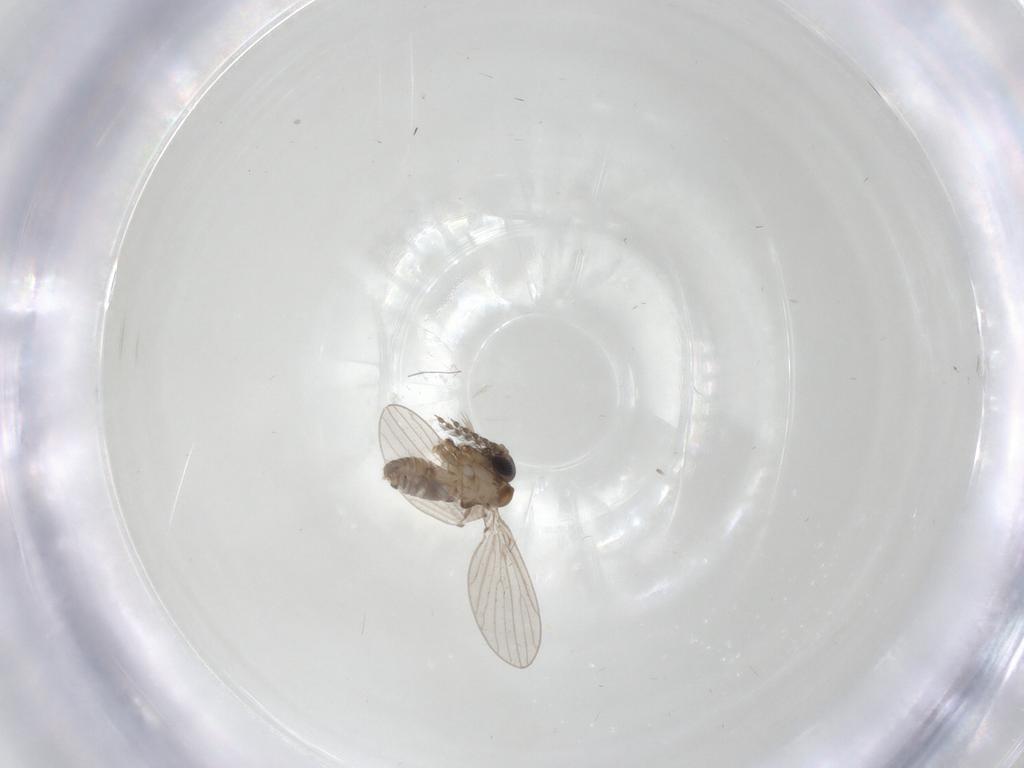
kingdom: Animalia
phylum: Arthropoda
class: Insecta
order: Diptera
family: Psychodidae
